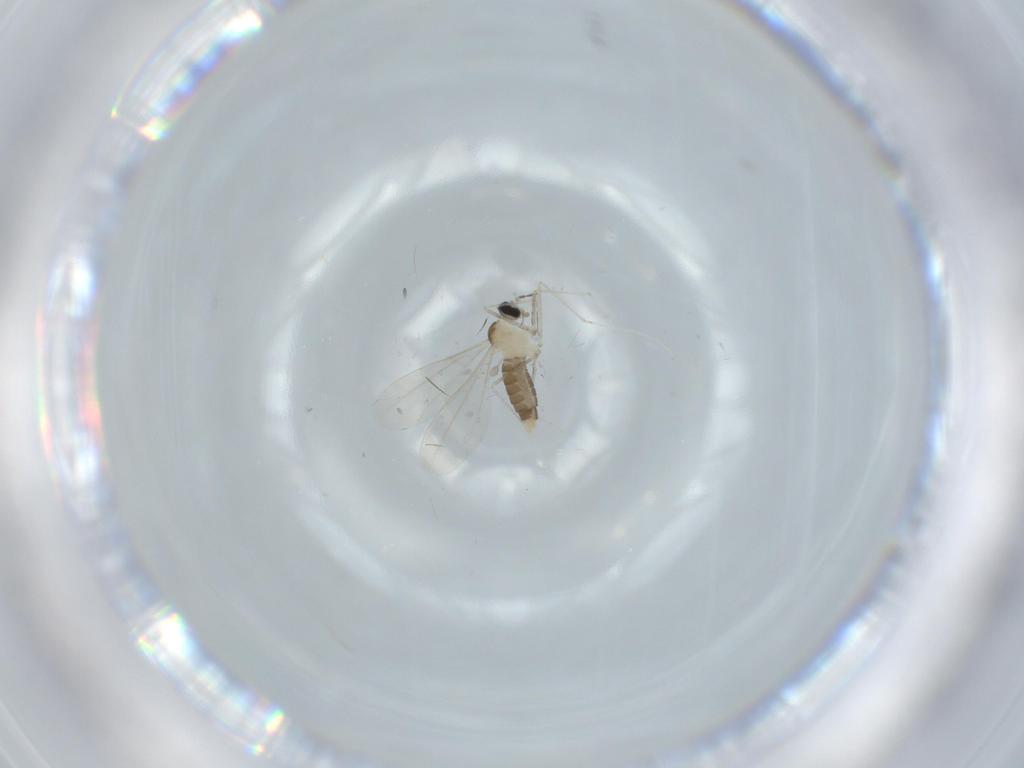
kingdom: Animalia
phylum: Arthropoda
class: Insecta
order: Diptera
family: Cecidomyiidae
